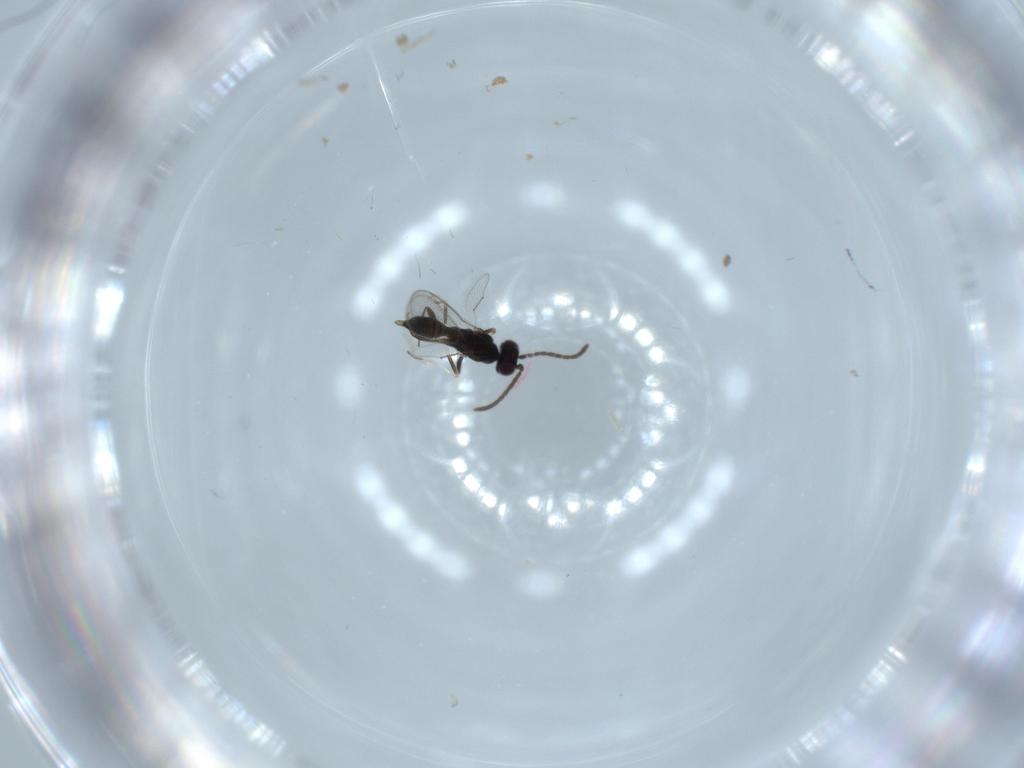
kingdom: Animalia
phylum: Arthropoda
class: Insecta
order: Hymenoptera
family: Eupelmidae
